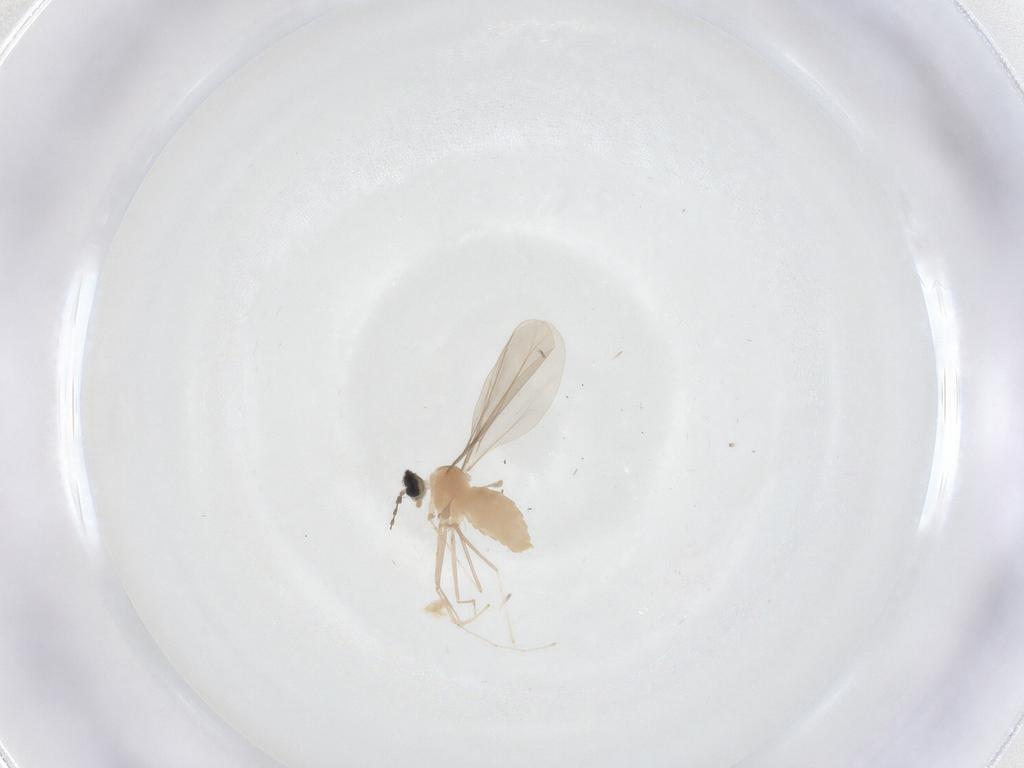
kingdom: Animalia
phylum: Arthropoda
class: Insecta
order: Diptera
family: Cecidomyiidae
